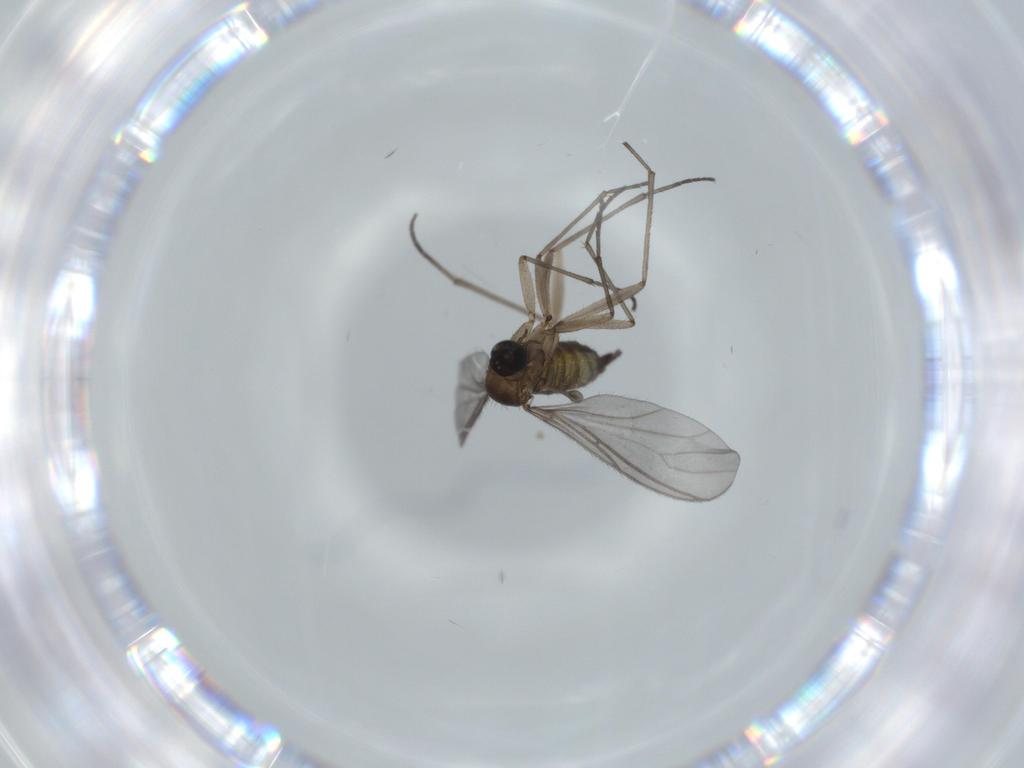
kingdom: Animalia
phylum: Arthropoda
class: Insecta
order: Diptera
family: Sciaridae
